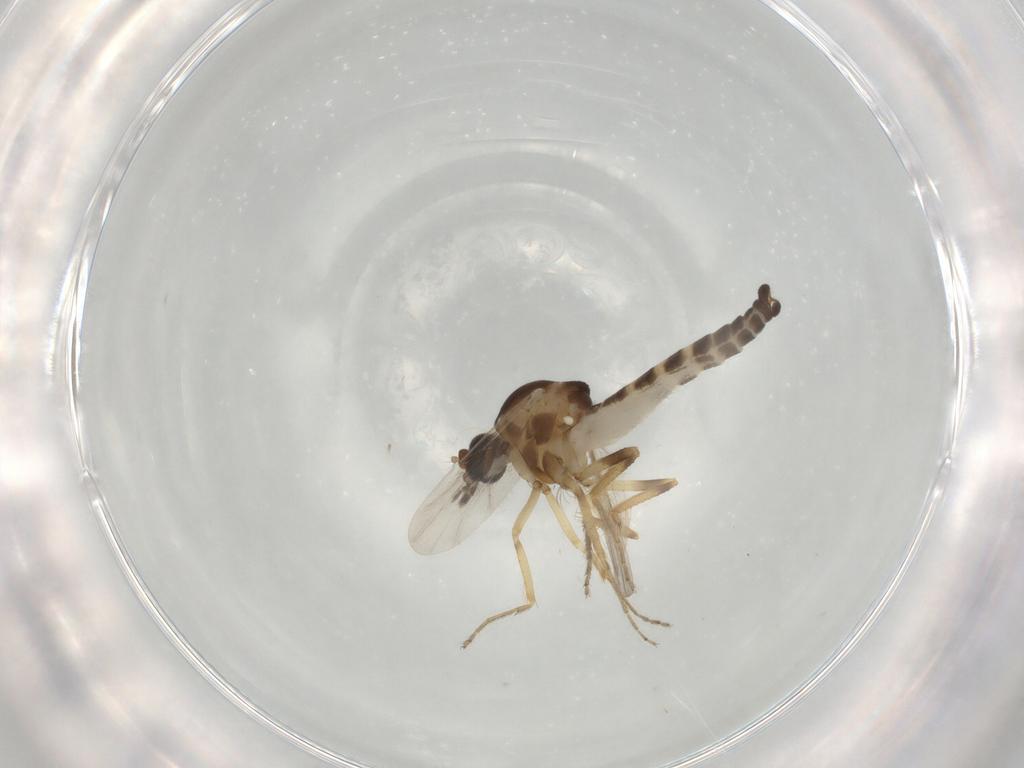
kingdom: Animalia
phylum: Arthropoda
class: Insecta
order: Diptera
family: Ceratopogonidae
